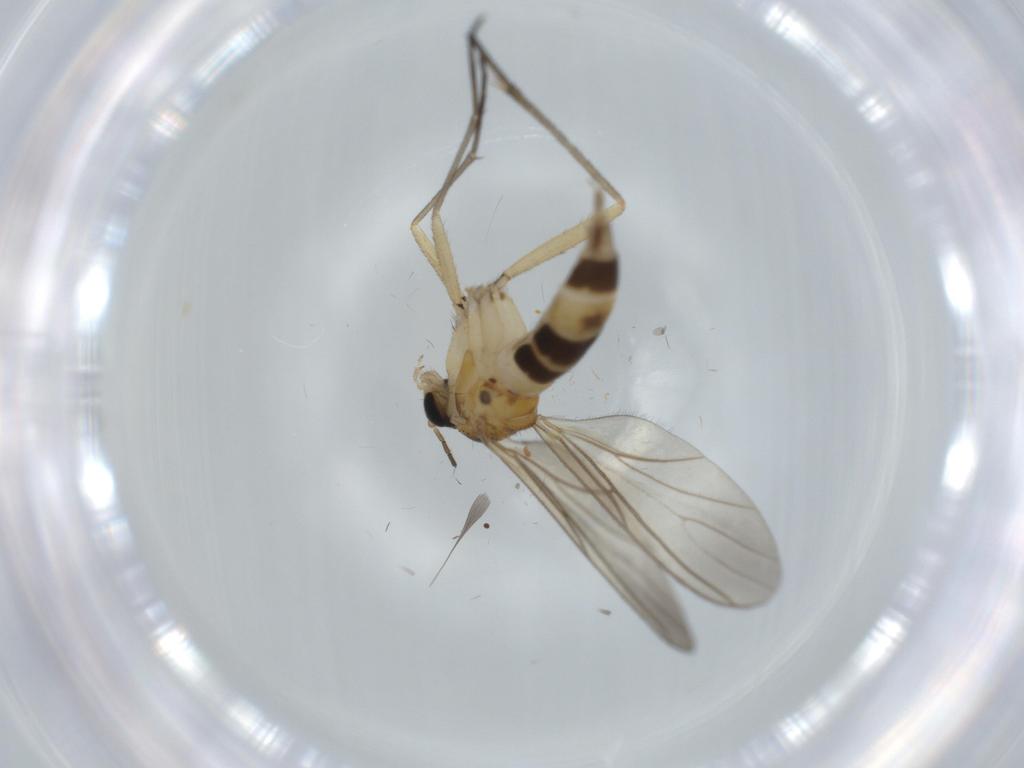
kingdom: Animalia
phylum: Arthropoda
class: Insecta
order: Diptera
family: Sciaridae
